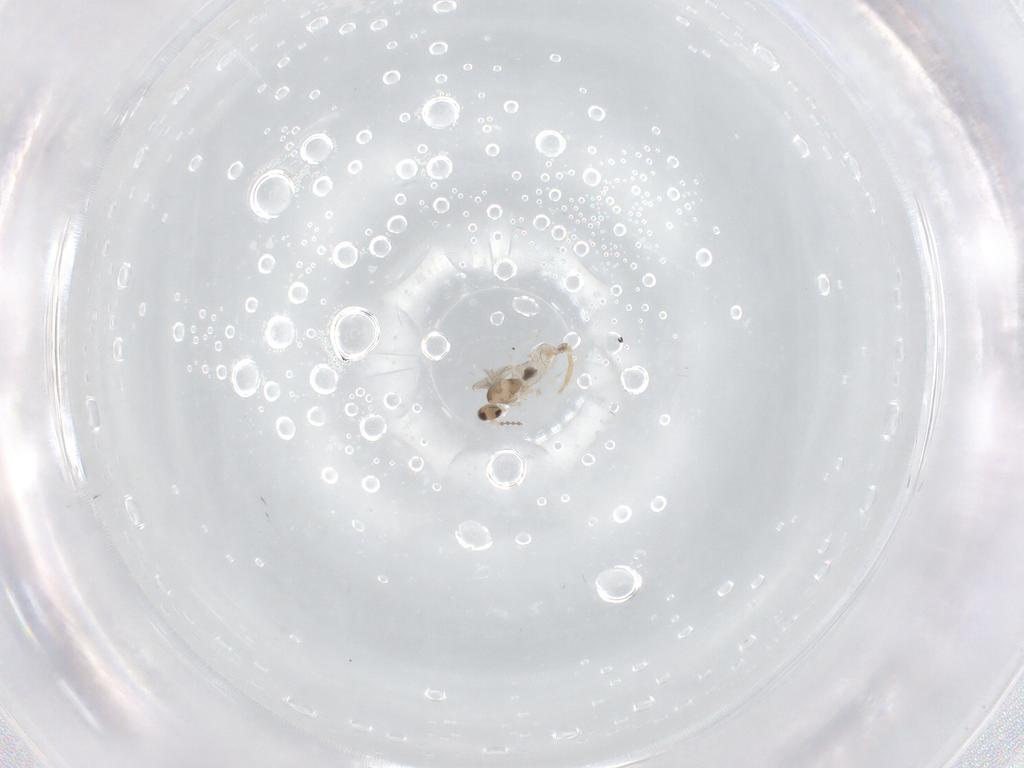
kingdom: Animalia
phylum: Arthropoda
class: Insecta
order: Diptera
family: Cecidomyiidae
